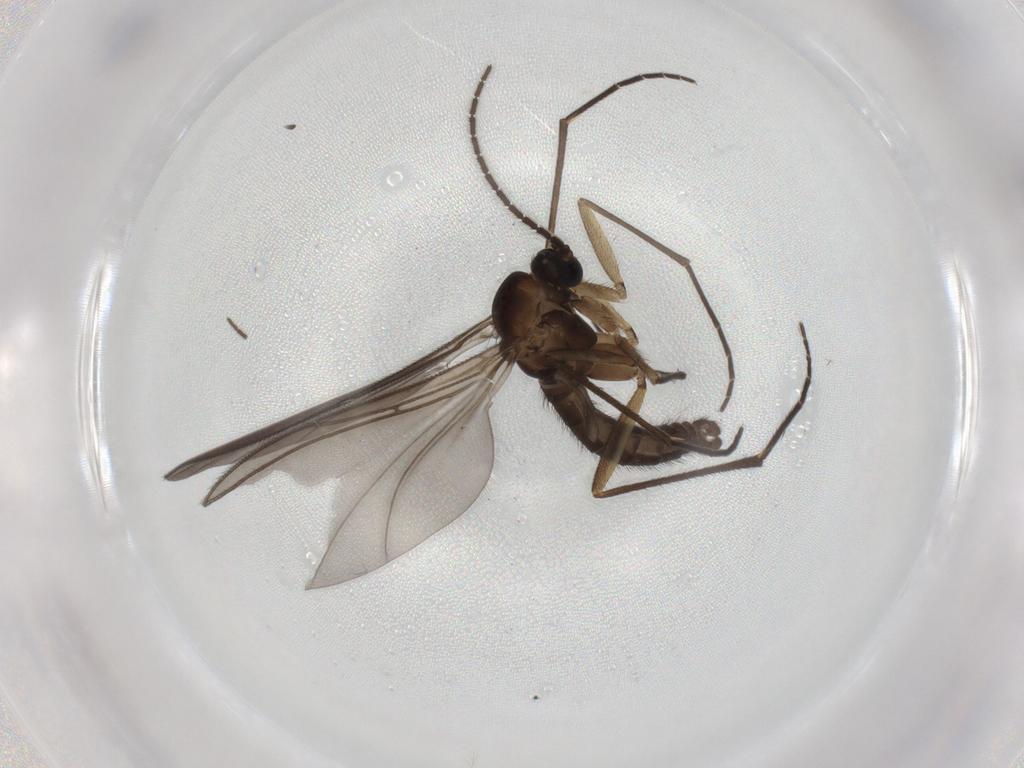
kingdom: Animalia
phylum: Arthropoda
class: Insecta
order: Diptera
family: Sciaridae
